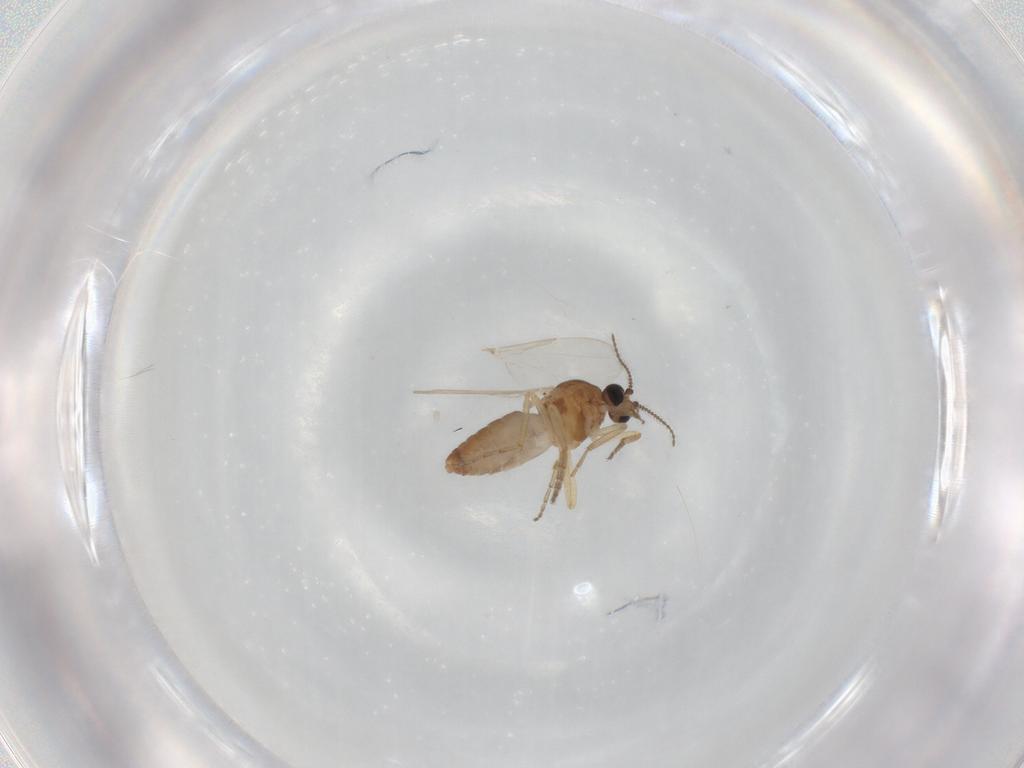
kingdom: Animalia
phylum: Arthropoda
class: Insecta
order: Diptera
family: Ceratopogonidae
